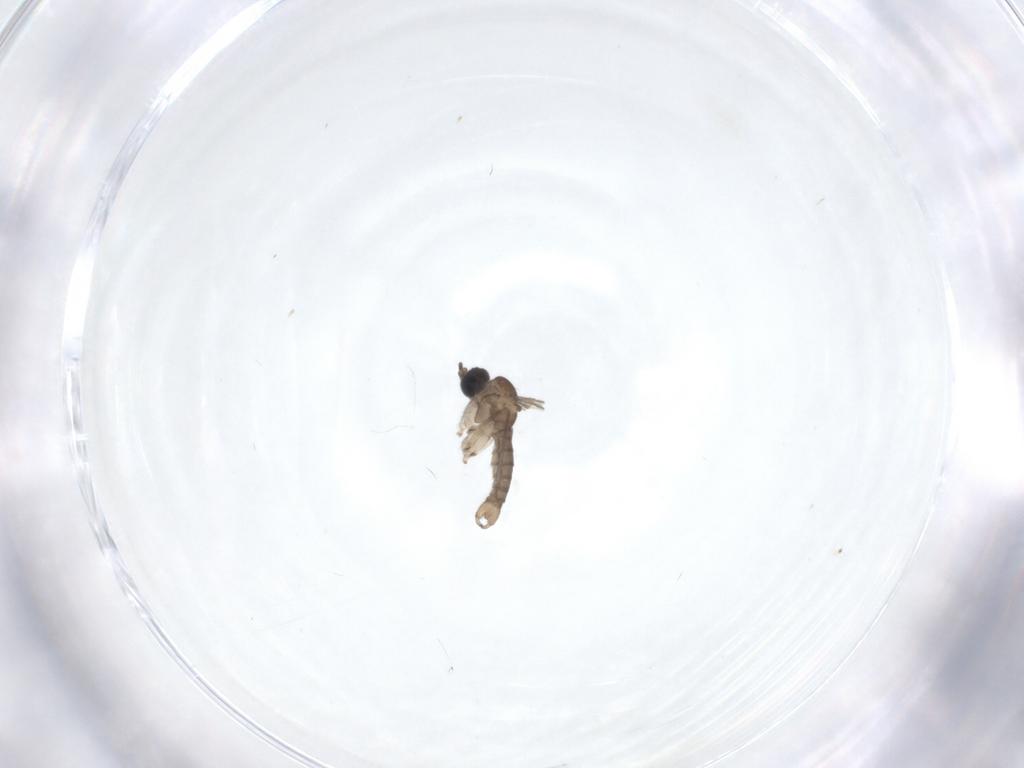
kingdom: Animalia
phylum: Arthropoda
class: Insecta
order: Diptera
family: Sciaridae
